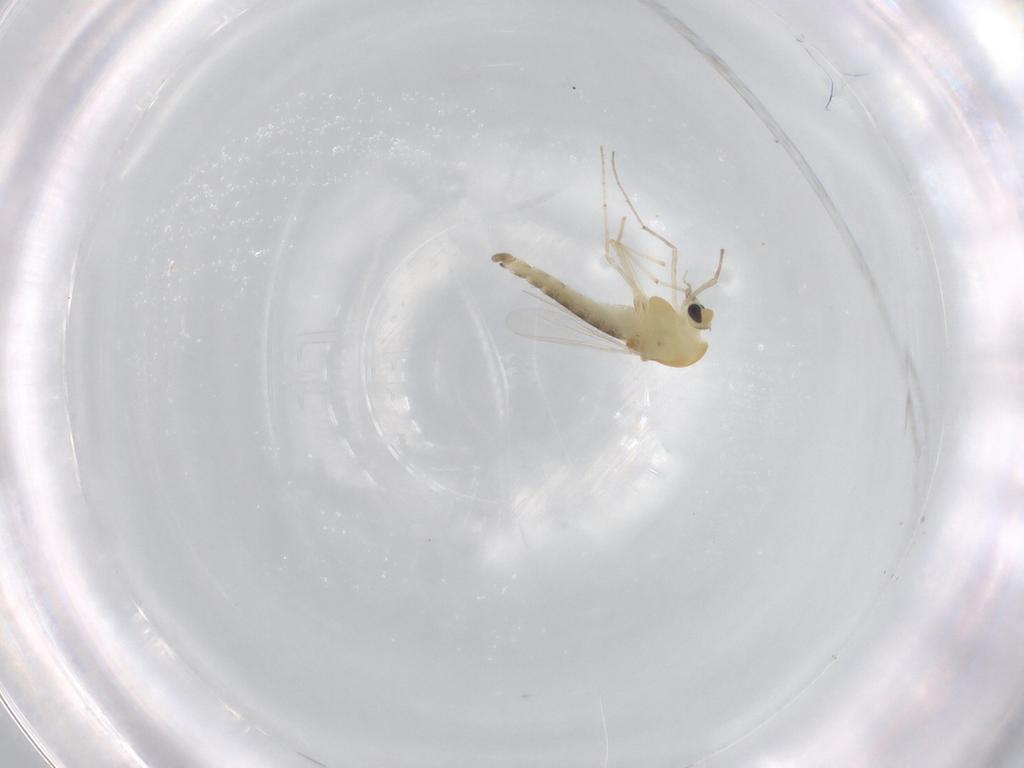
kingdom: Animalia
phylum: Arthropoda
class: Insecta
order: Diptera
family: Chironomidae
